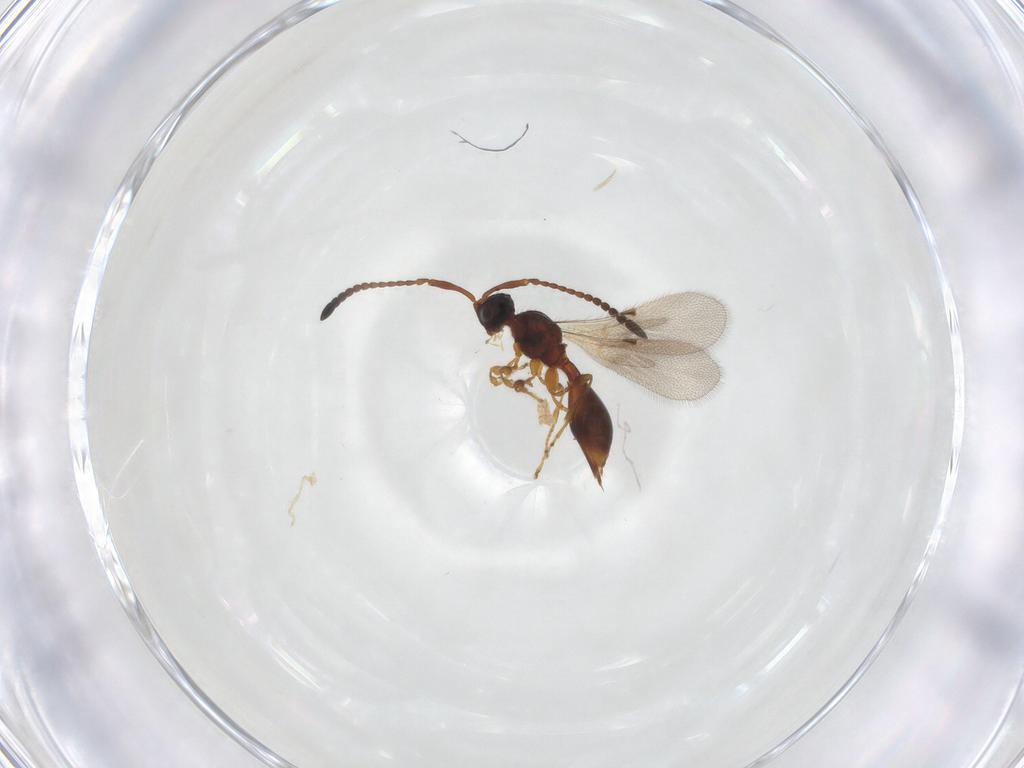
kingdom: Animalia
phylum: Arthropoda
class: Insecta
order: Hymenoptera
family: Diapriidae
